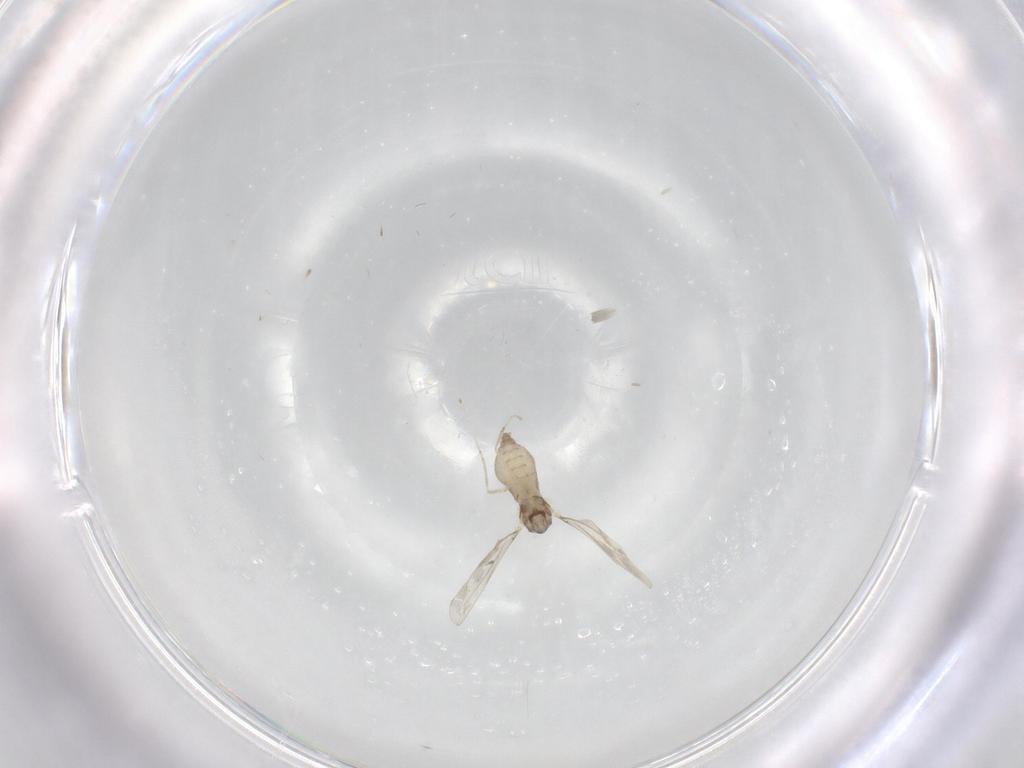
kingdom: Animalia
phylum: Arthropoda
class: Insecta
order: Diptera
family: Cecidomyiidae
